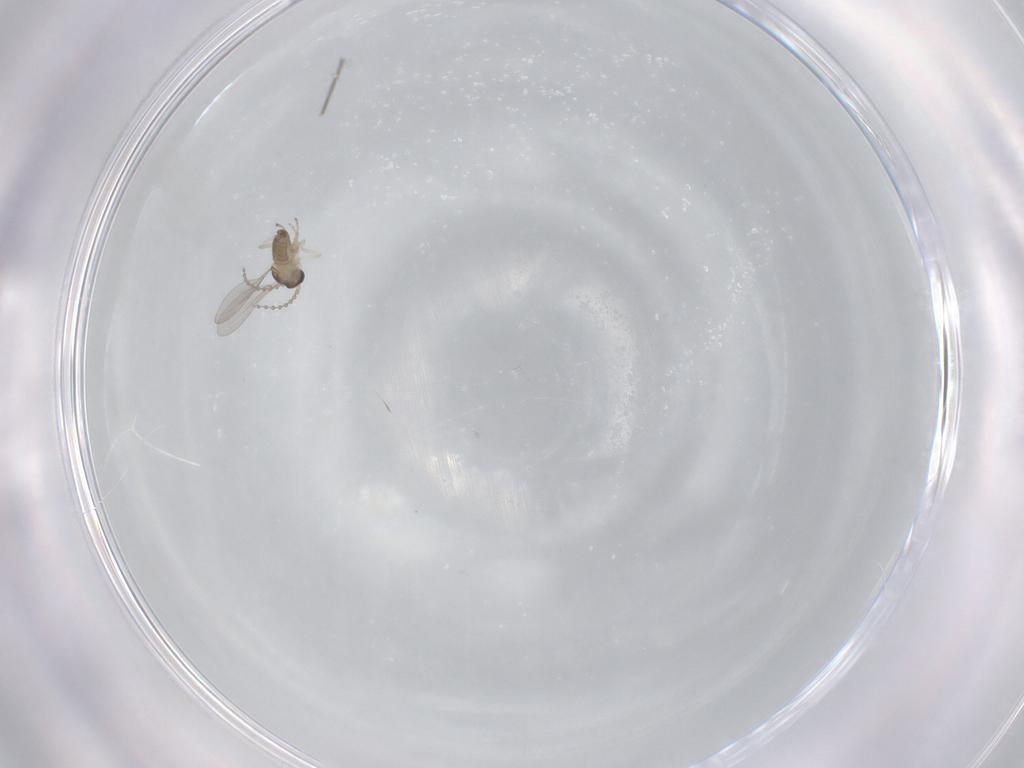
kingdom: Animalia
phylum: Arthropoda
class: Insecta
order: Diptera
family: Cecidomyiidae
